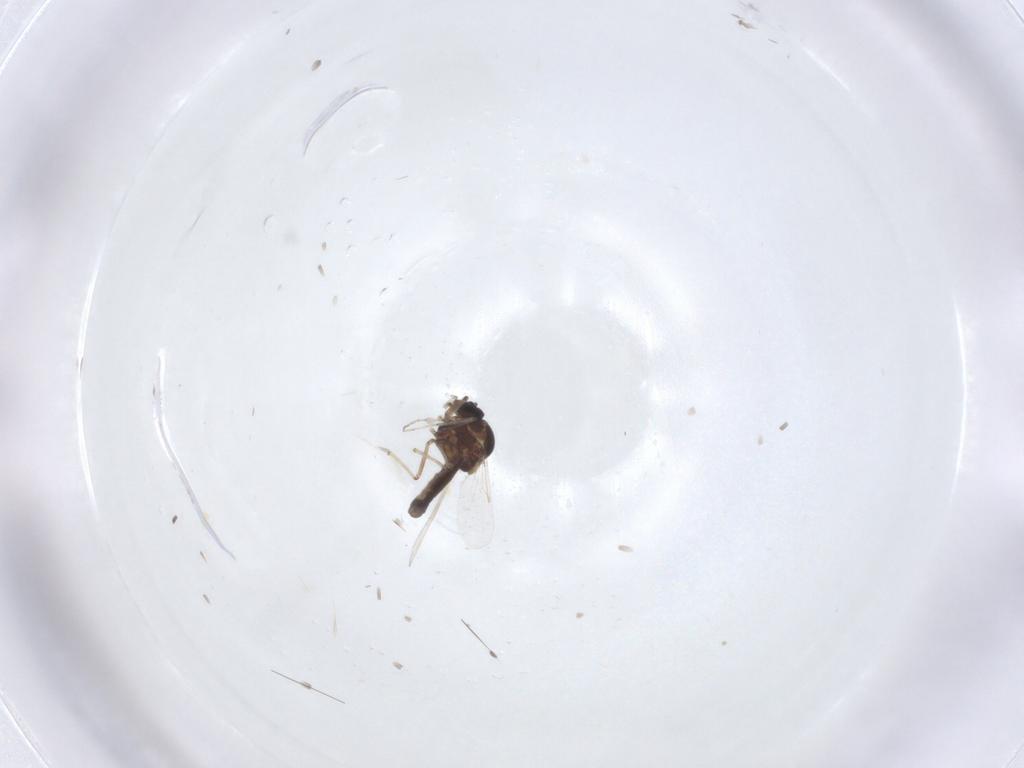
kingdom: Animalia
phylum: Arthropoda
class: Insecta
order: Diptera
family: Ceratopogonidae
